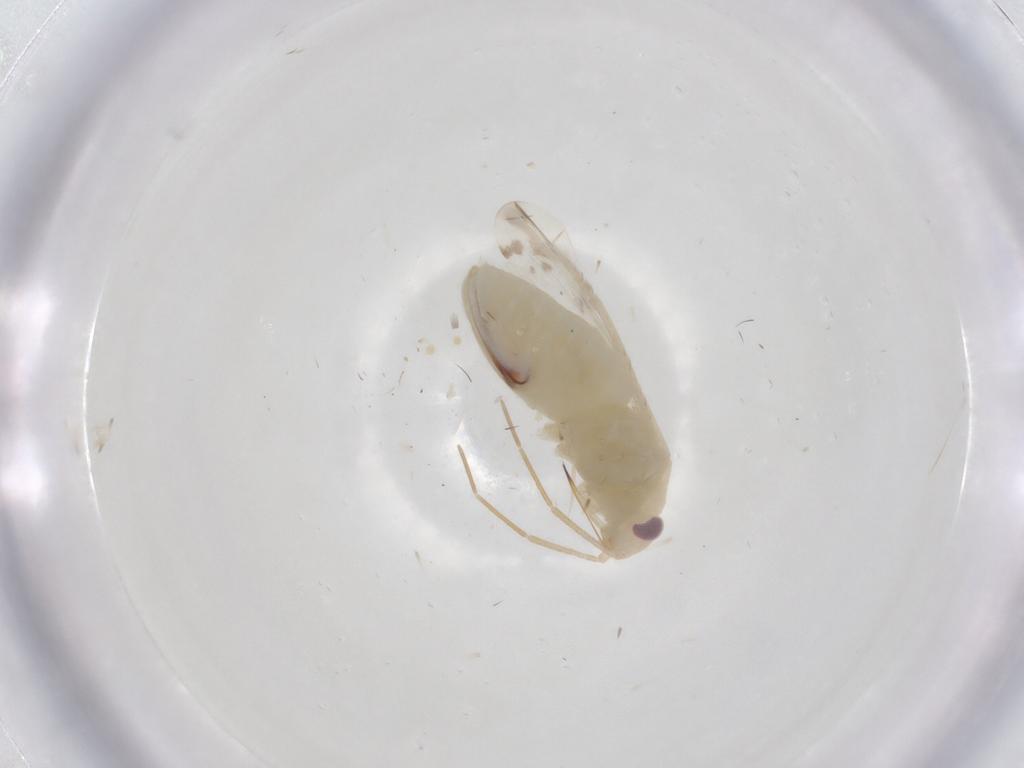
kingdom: Animalia
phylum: Arthropoda
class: Insecta
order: Hemiptera
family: Miridae
